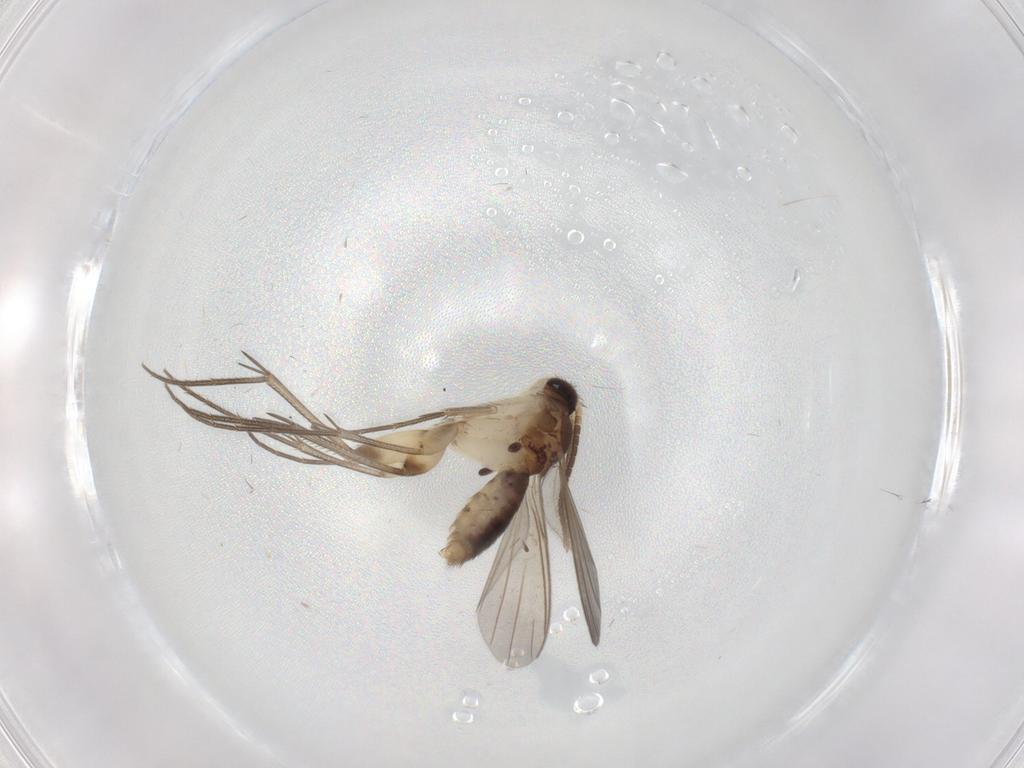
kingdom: Animalia
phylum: Arthropoda
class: Insecta
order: Diptera
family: Mycetophilidae
